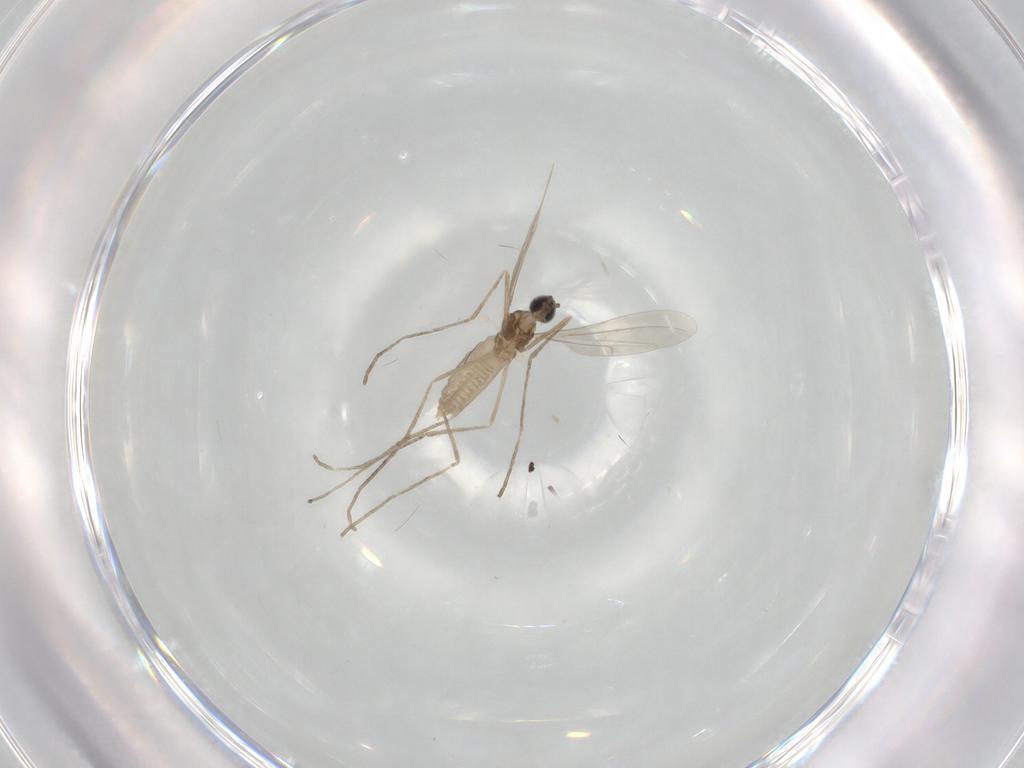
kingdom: Animalia
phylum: Arthropoda
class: Insecta
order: Diptera
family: Cecidomyiidae
